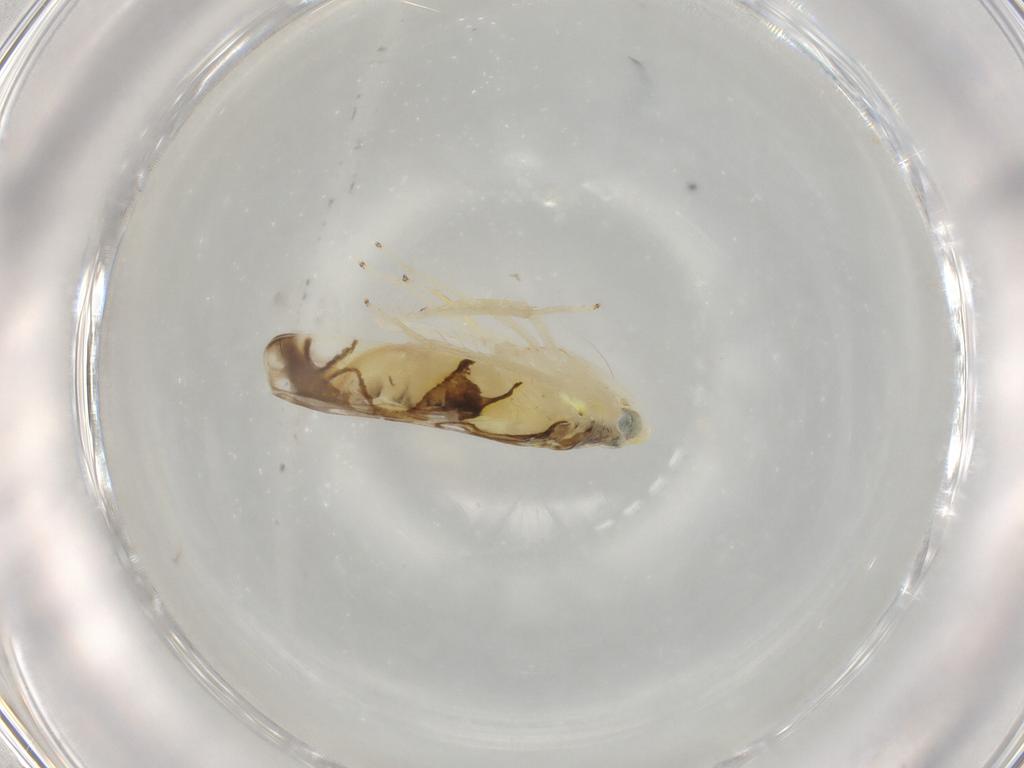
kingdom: Animalia
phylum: Arthropoda
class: Insecta
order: Hemiptera
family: Cicadellidae
